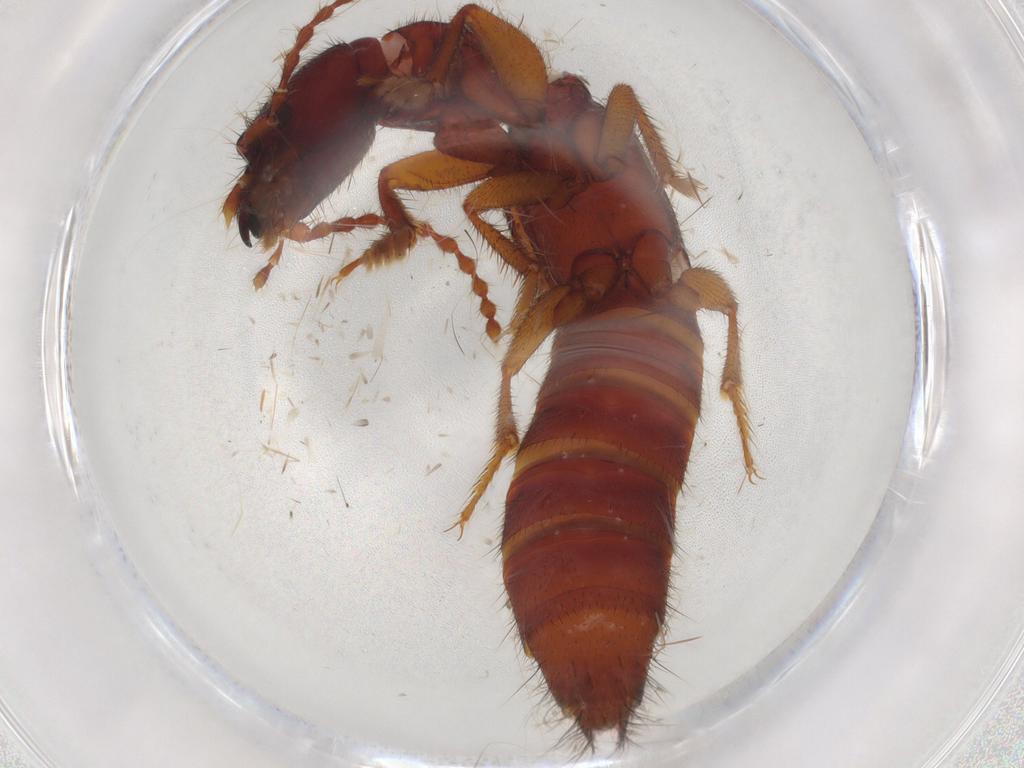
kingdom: Animalia
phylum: Arthropoda
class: Insecta
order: Coleoptera
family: Staphylinidae
